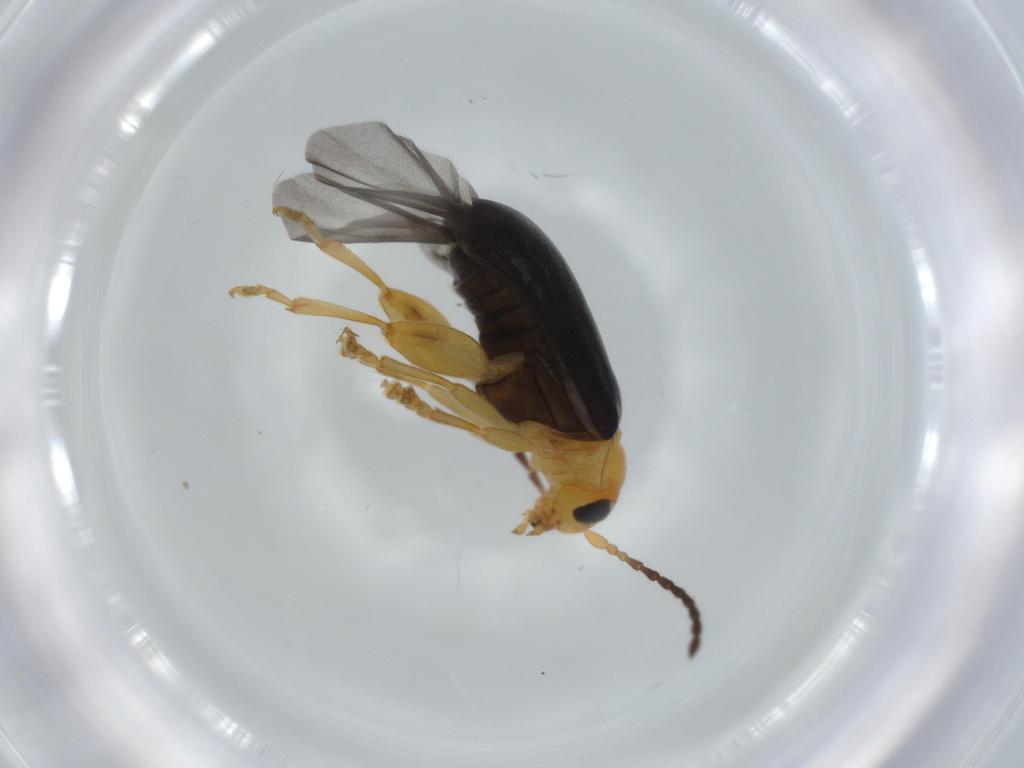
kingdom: Animalia
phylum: Arthropoda
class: Insecta
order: Coleoptera
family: Chrysomelidae
